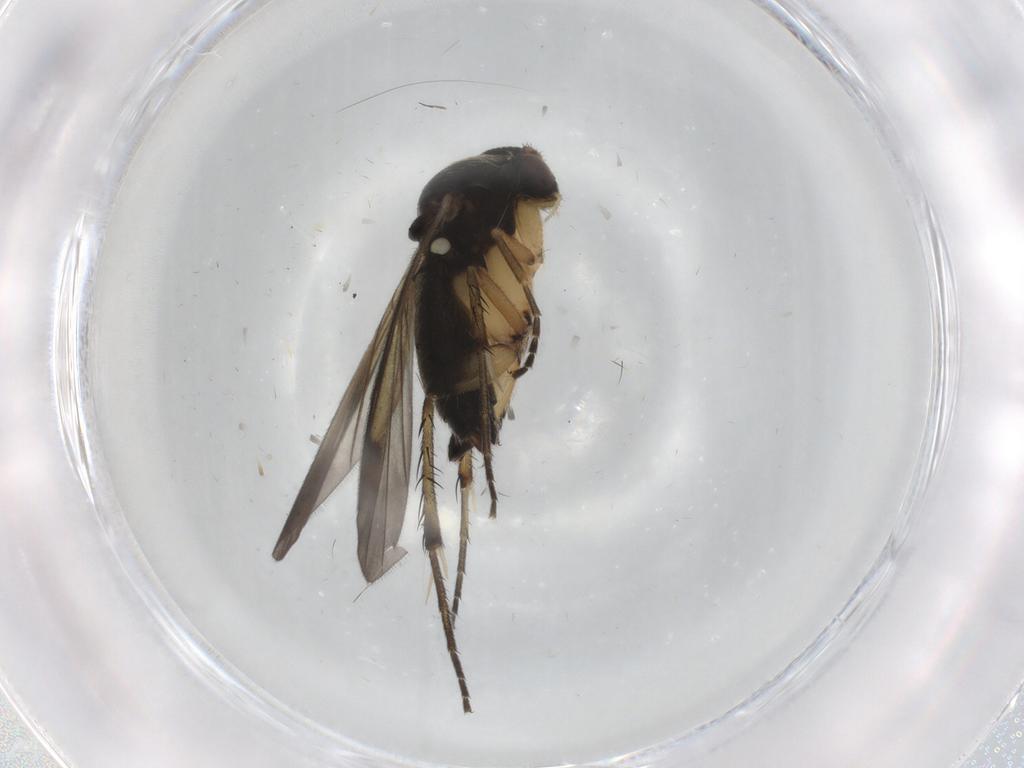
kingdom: Animalia
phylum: Arthropoda
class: Insecta
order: Diptera
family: Mycetophilidae
